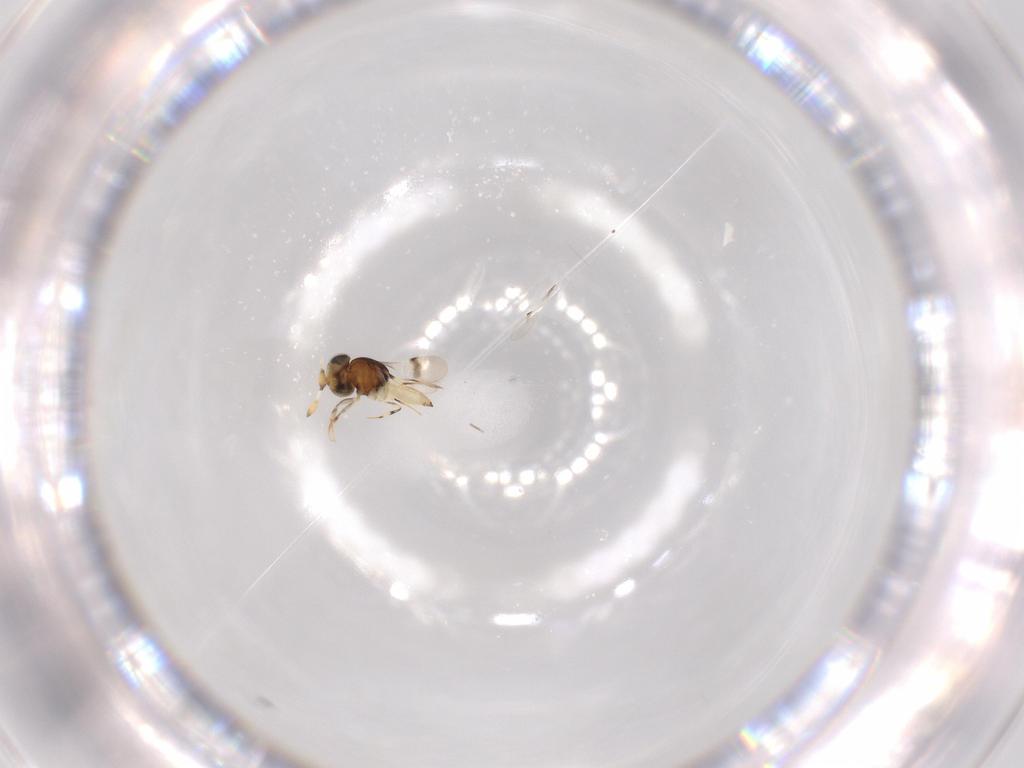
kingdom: Animalia
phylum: Arthropoda
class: Insecta
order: Hymenoptera
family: Scelionidae
